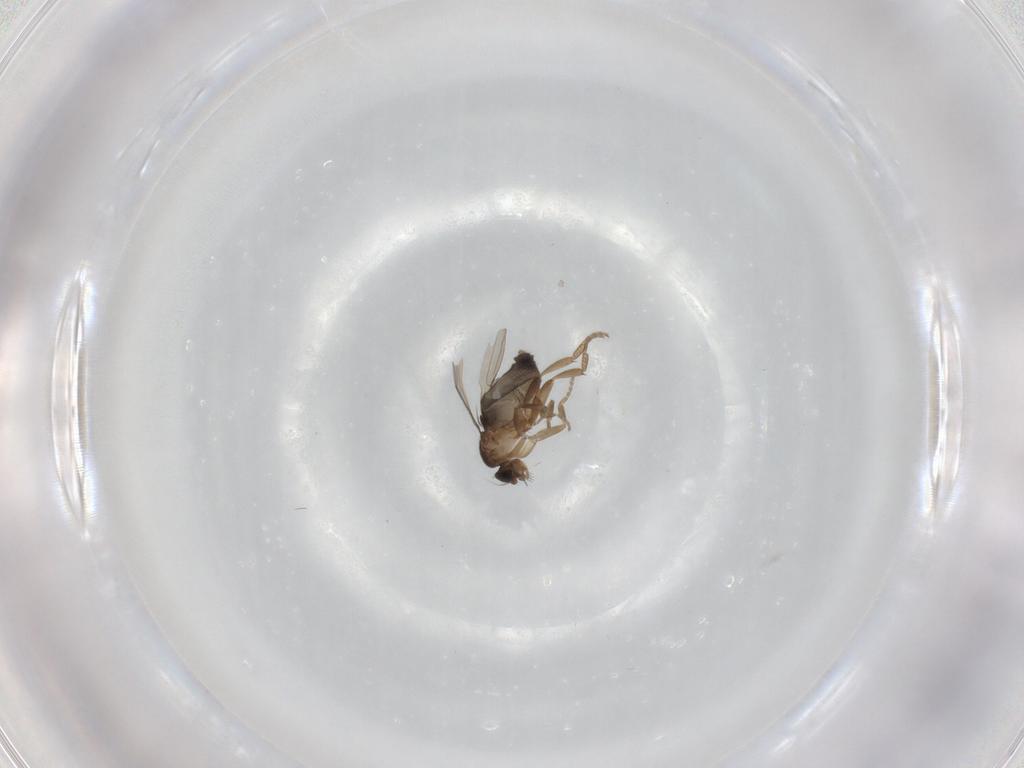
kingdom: Animalia
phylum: Arthropoda
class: Insecta
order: Diptera
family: Phoridae
